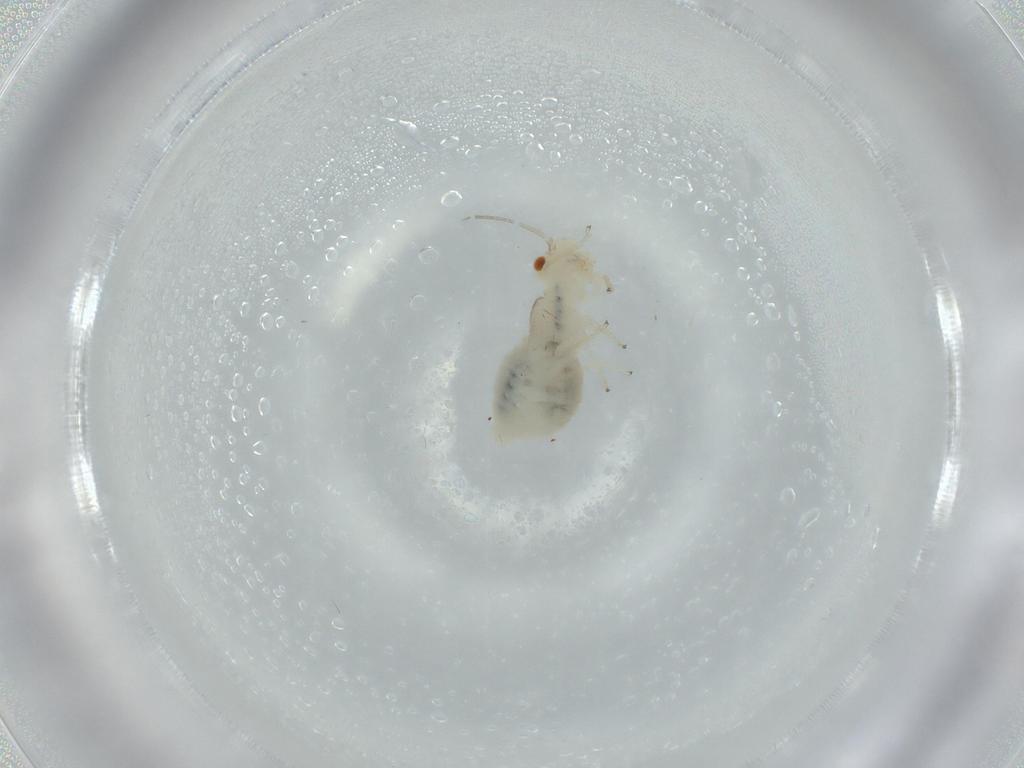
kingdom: Animalia
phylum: Arthropoda
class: Insecta
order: Psocodea
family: Caeciliusidae
